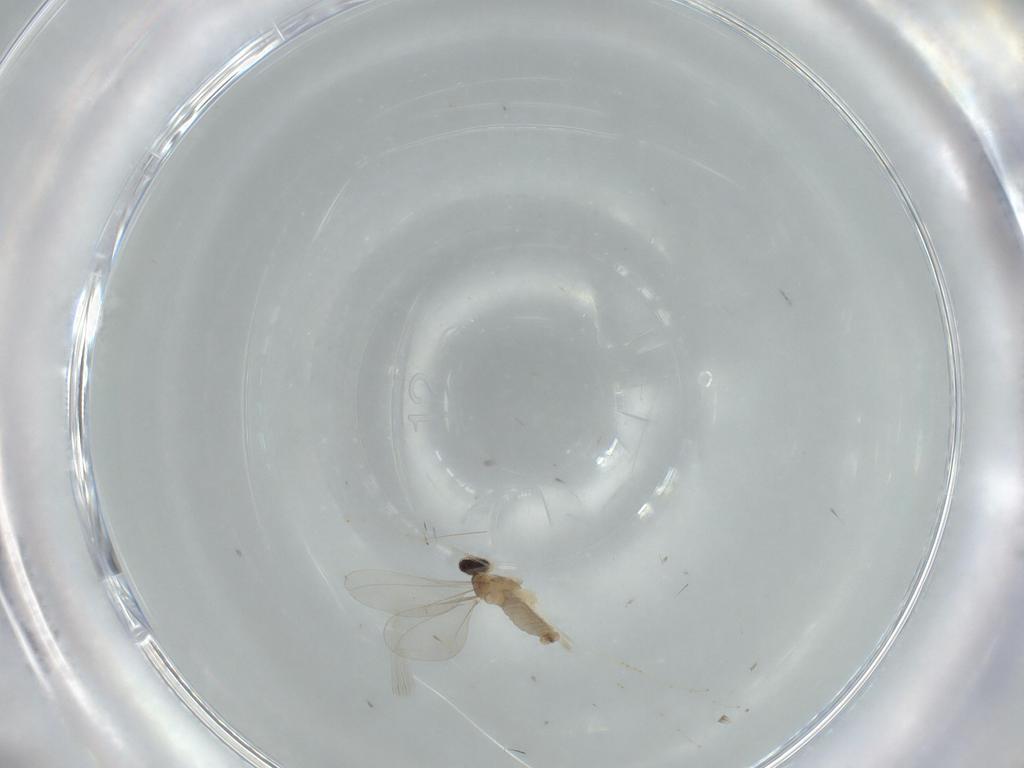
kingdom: Animalia
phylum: Arthropoda
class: Insecta
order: Diptera
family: Cecidomyiidae
